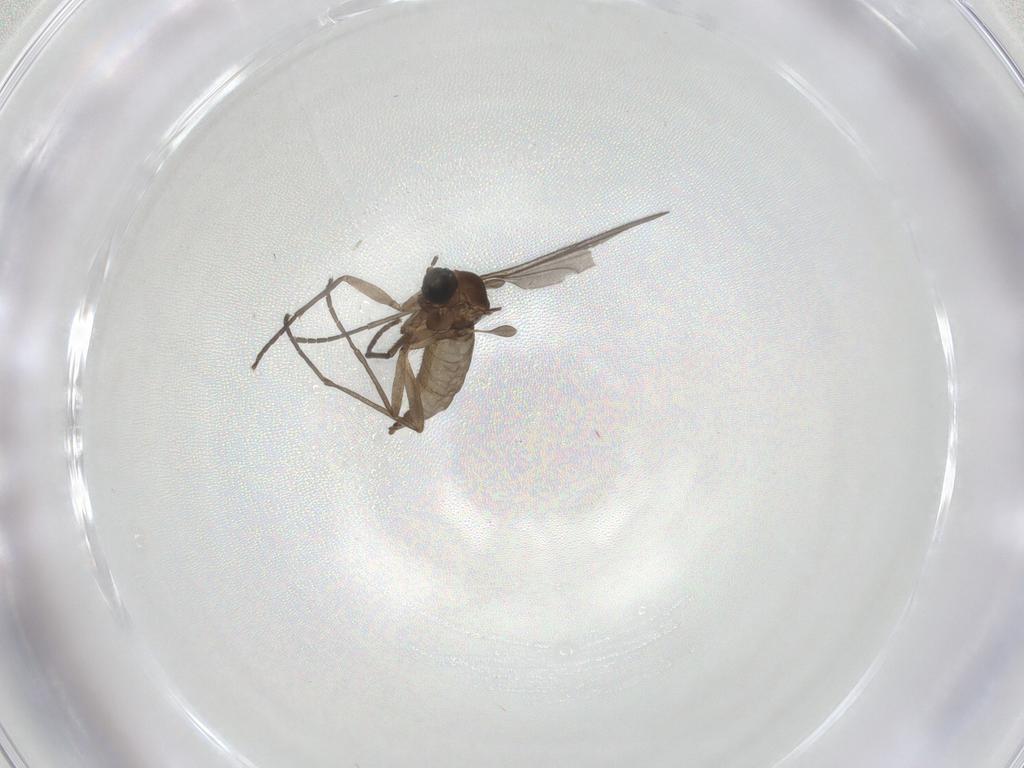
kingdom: Animalia
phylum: Arthropoda
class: Insecta
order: Diptera
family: Sciaridae
